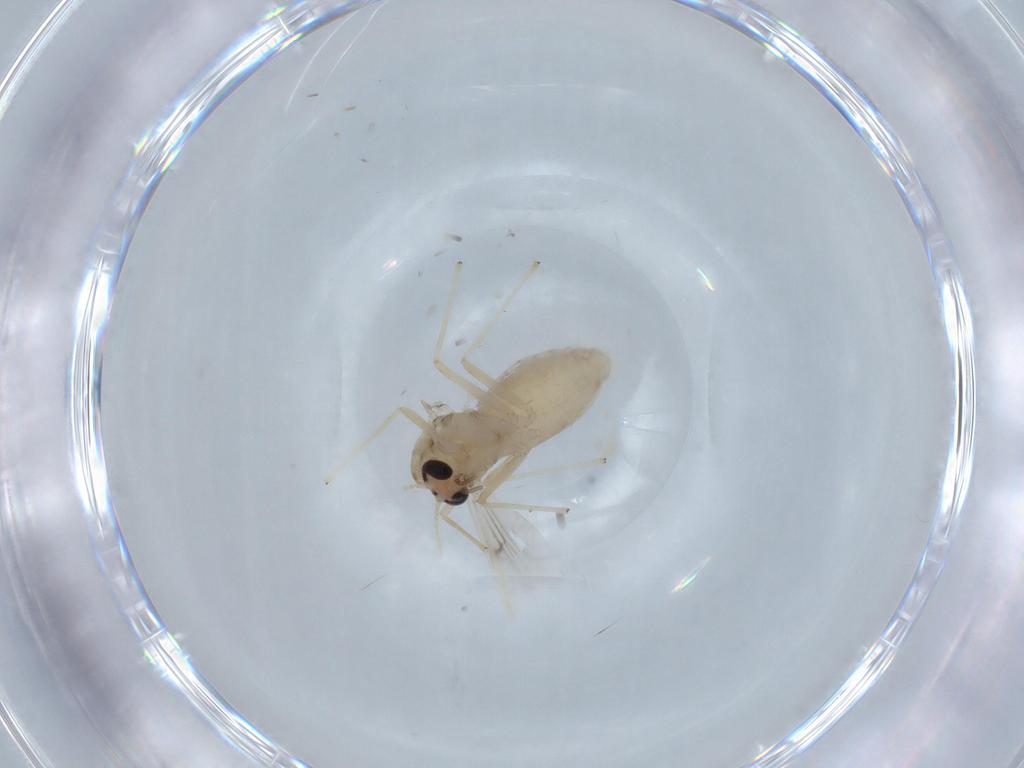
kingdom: Animalia
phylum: Arthropoda
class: Insecta
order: Diptera
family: Chironomidae
